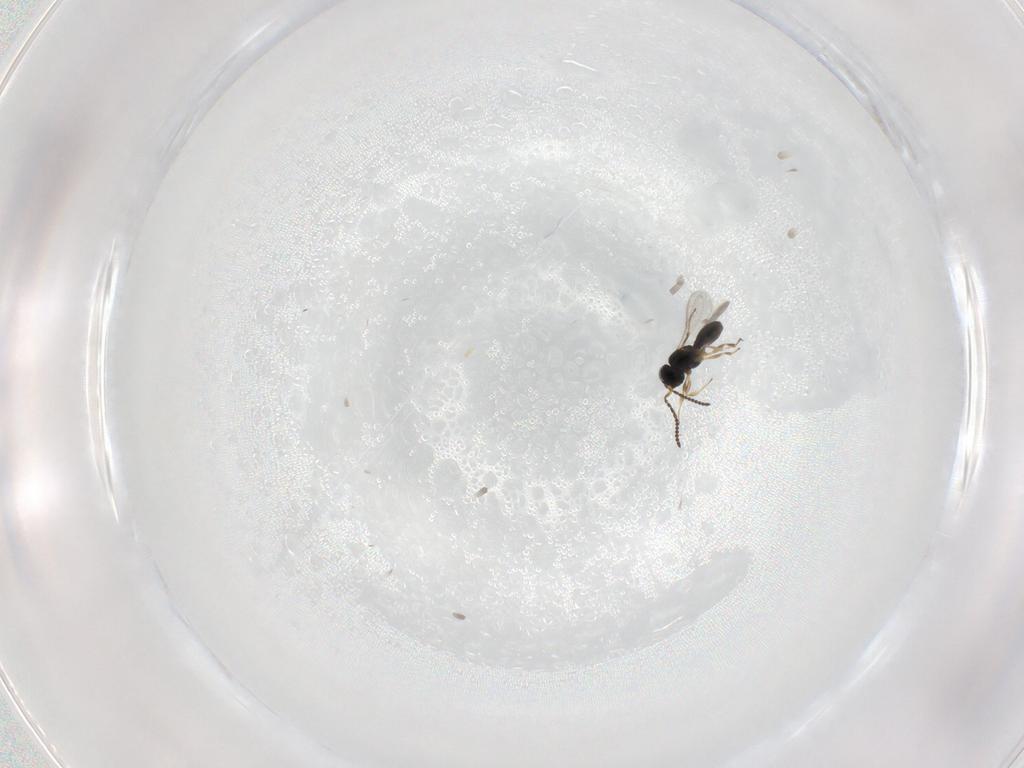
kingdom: Animalia
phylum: Arthropoda
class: Insecta
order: Hymenoptera
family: Scelionidae
